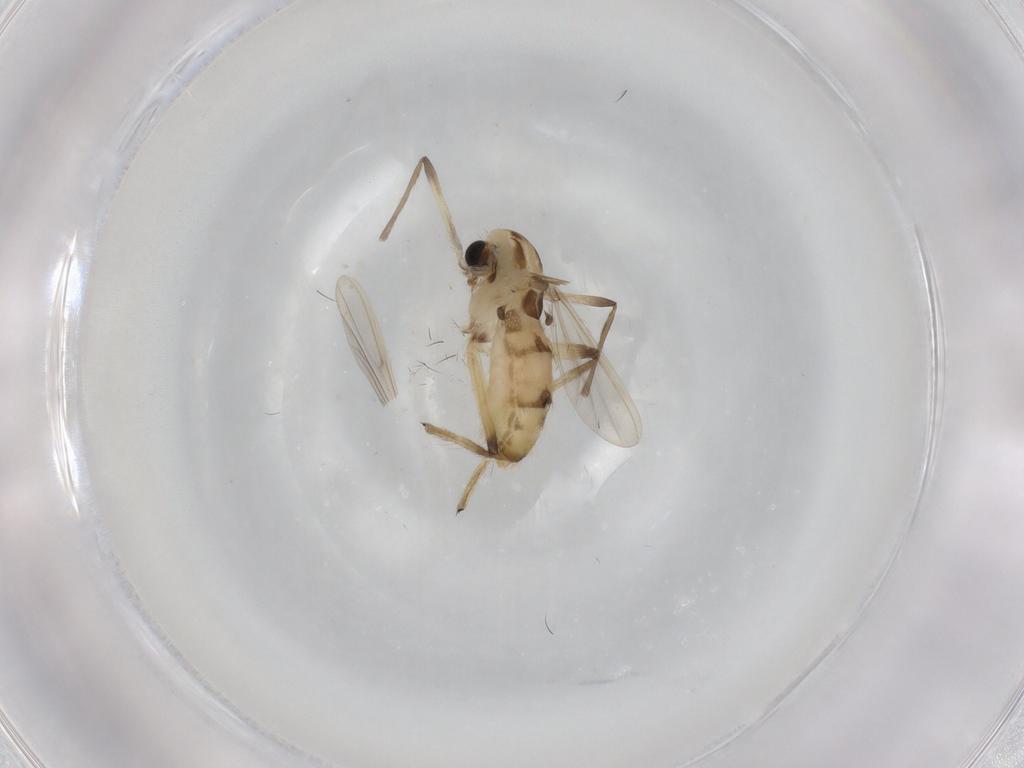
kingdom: Animalia
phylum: Arthropoda
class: Insecta
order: Diptera
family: Chironomidae
